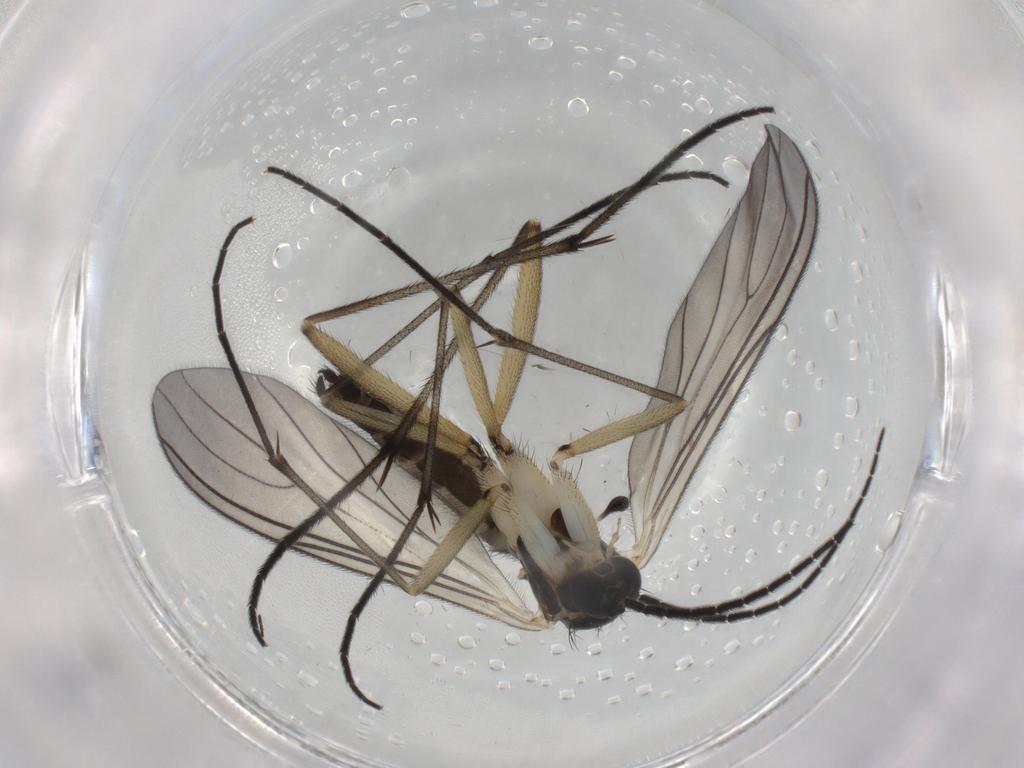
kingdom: Animalia
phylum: Arthropoda
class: Insecta
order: Diptera
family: Sciaridae
